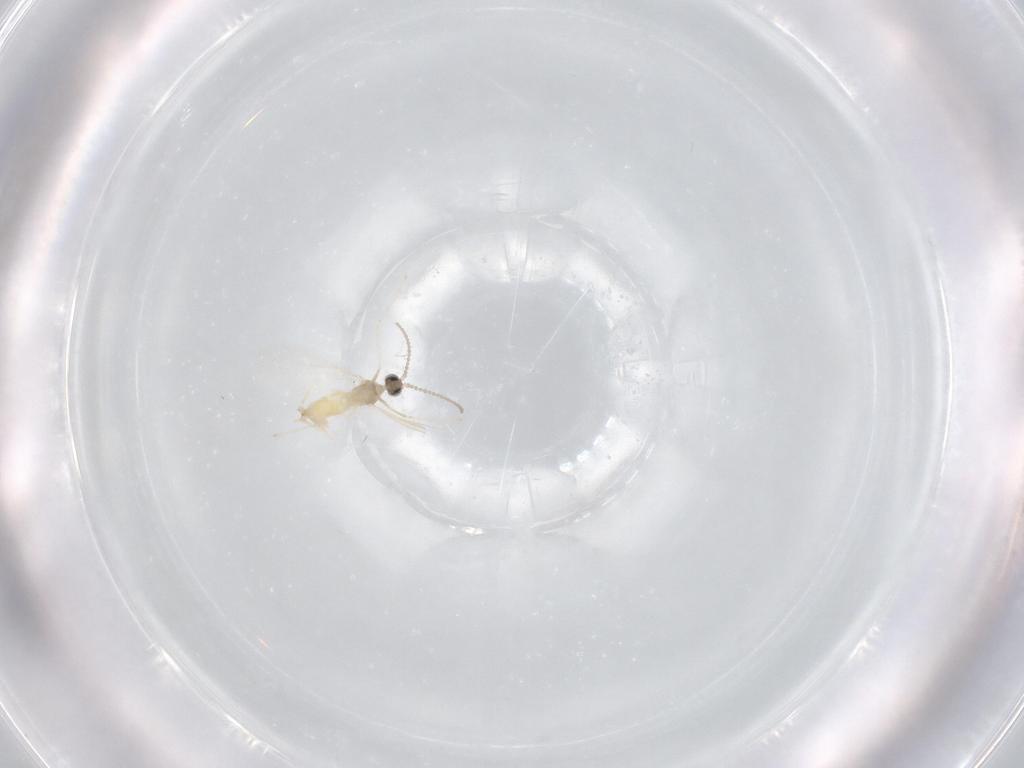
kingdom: Animalia
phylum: Arthropoda
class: Insecta
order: Diptera
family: Cecidomyiidae
